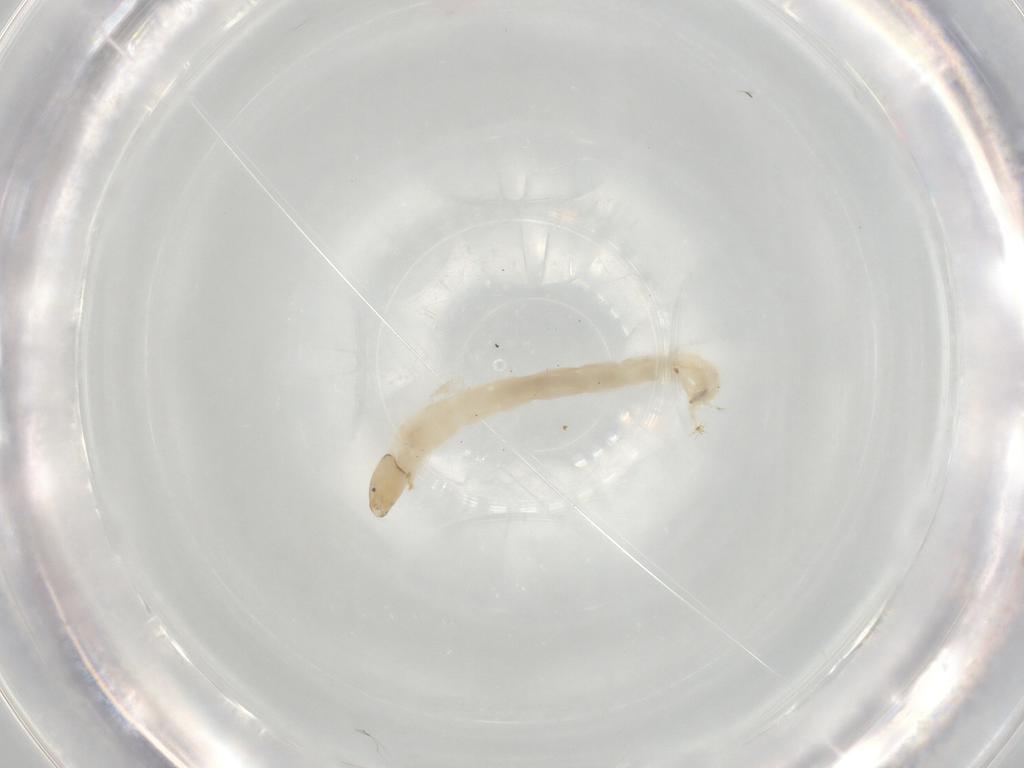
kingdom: Animalia
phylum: Arthropoda
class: Insecta
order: Diptera
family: Chironomidae
